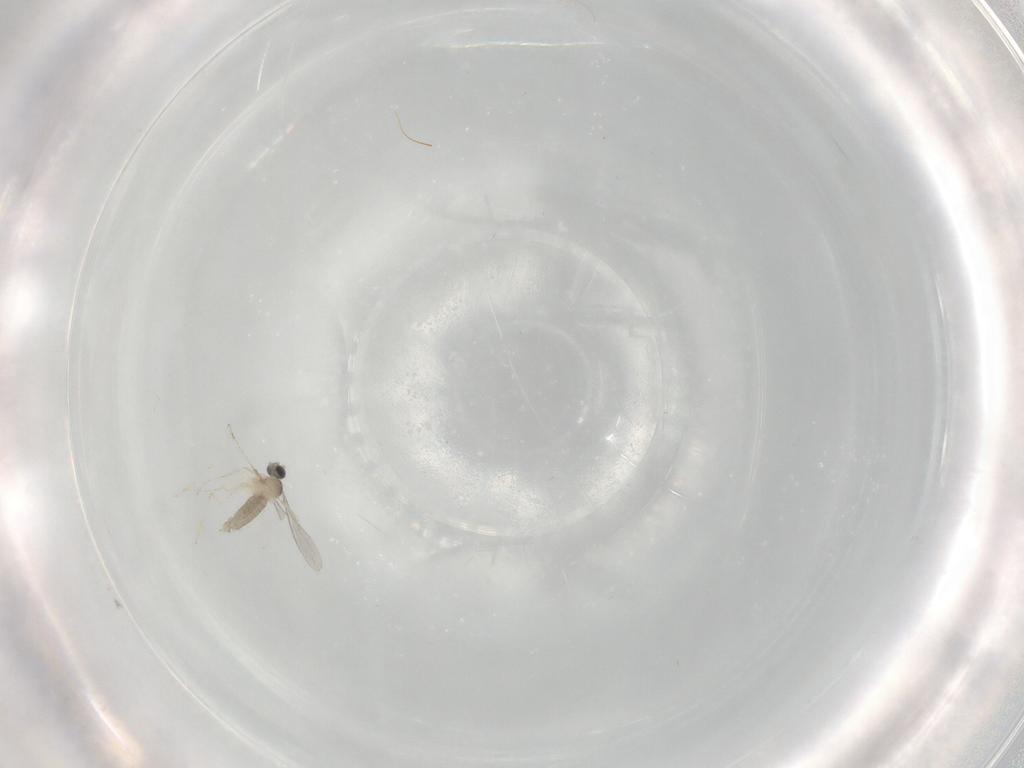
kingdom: Animalia
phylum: Arthropoda
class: Insecta
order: Diptera
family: Cecidomyiidae
